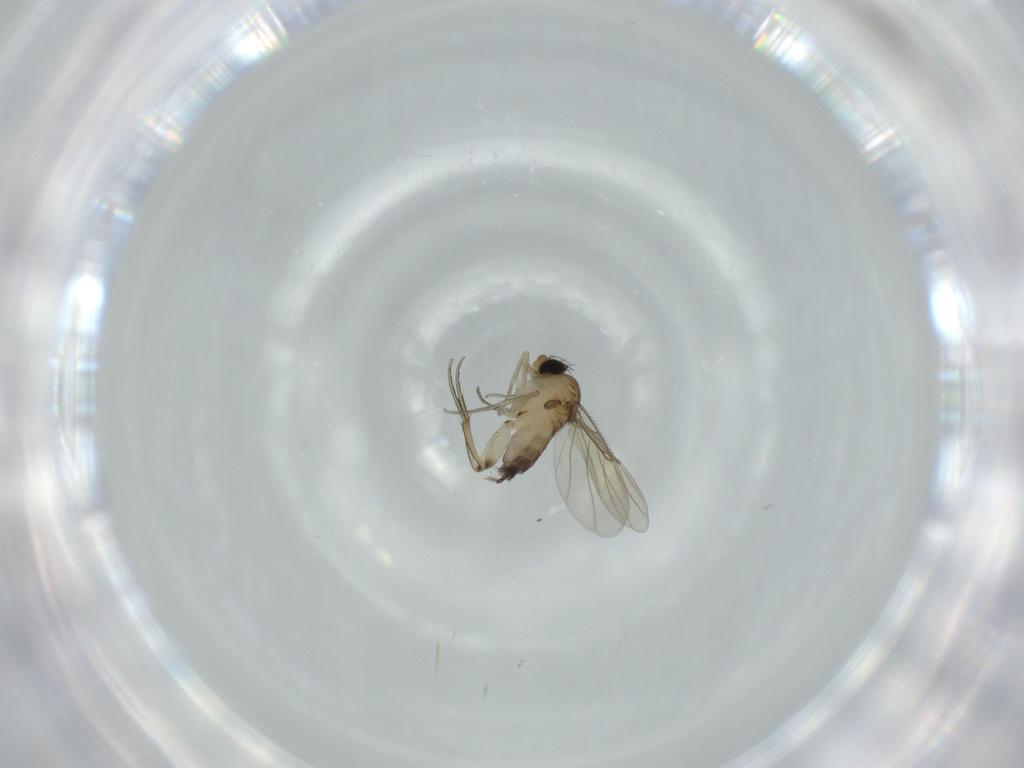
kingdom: Animalia
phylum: Arthropoda
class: Insecta
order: Diptera
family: Phoridae
